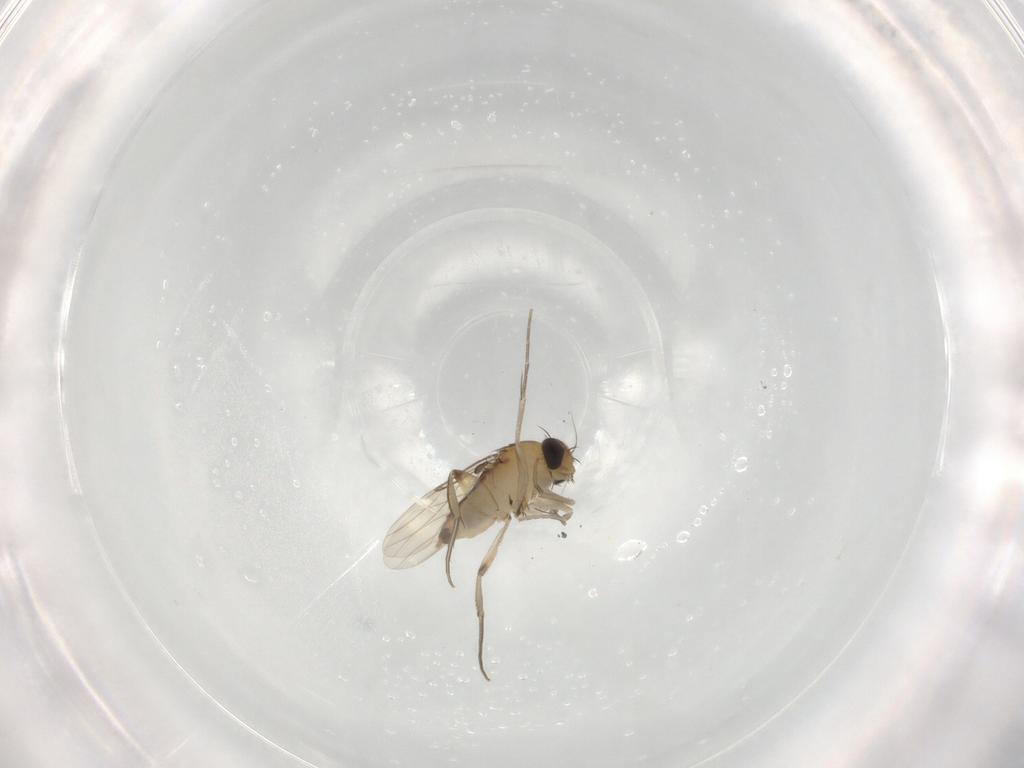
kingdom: Animalia
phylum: Arthropoda
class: Insecta
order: Diptera
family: Phoridae
